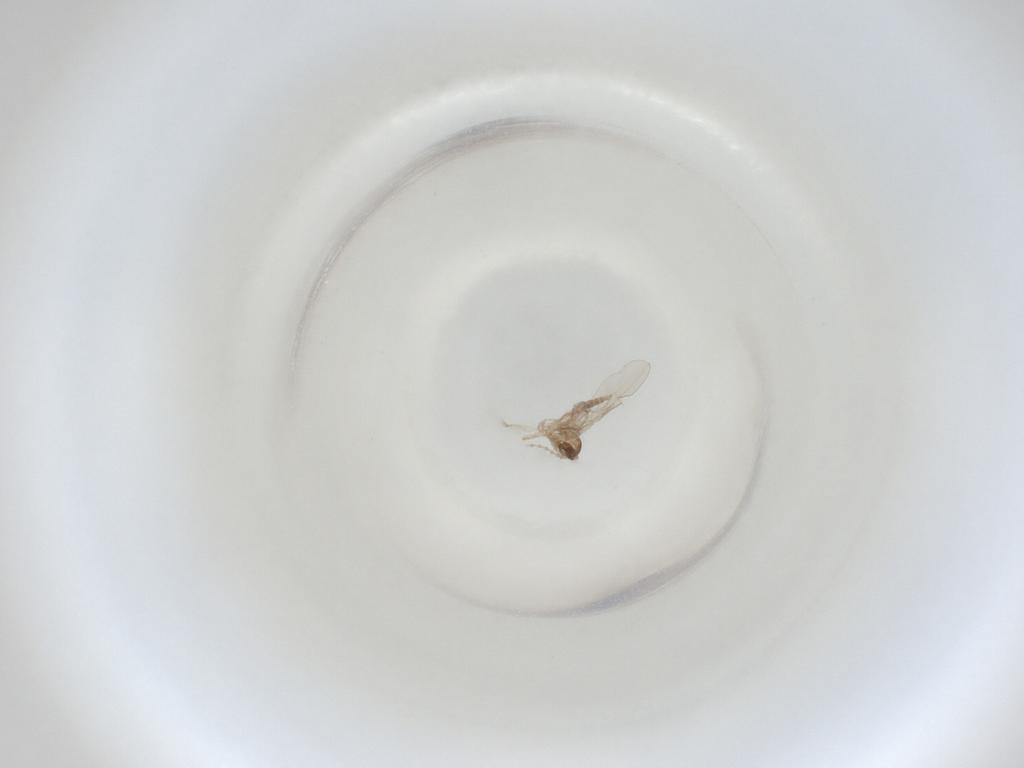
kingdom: Animalia
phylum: Arthropoda
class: Insecta
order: Diptera
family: Cecidomyiidae
